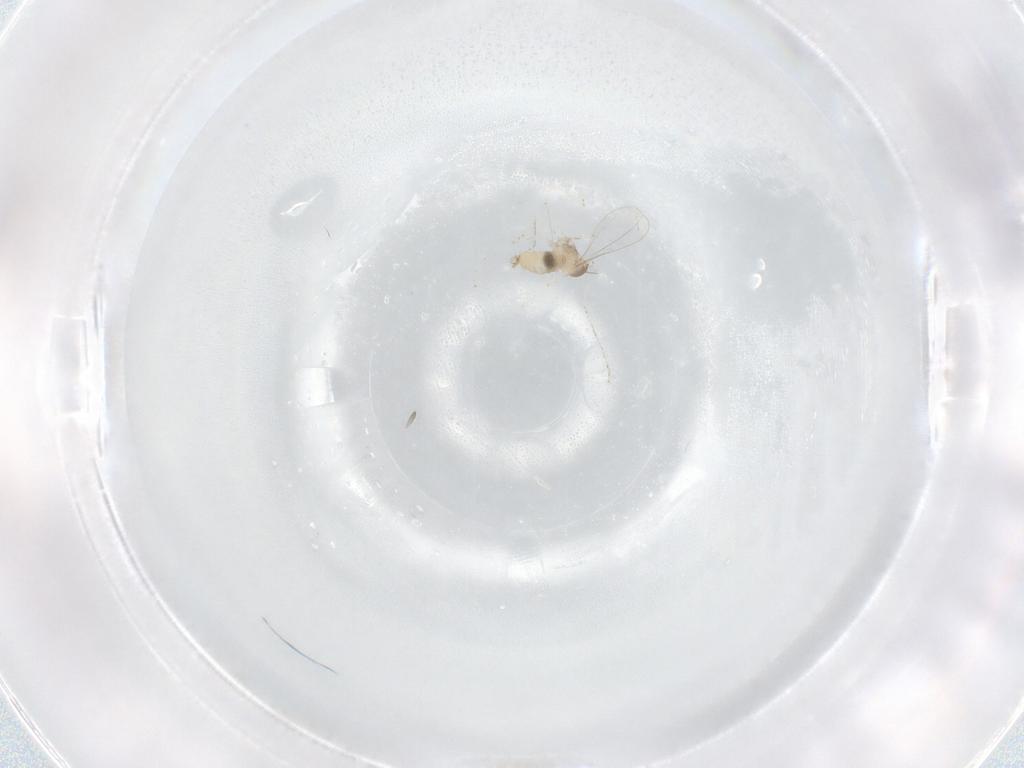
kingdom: Animalia
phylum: Arthropoda
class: Insecta
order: Diptera
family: Cecidomyiidae
